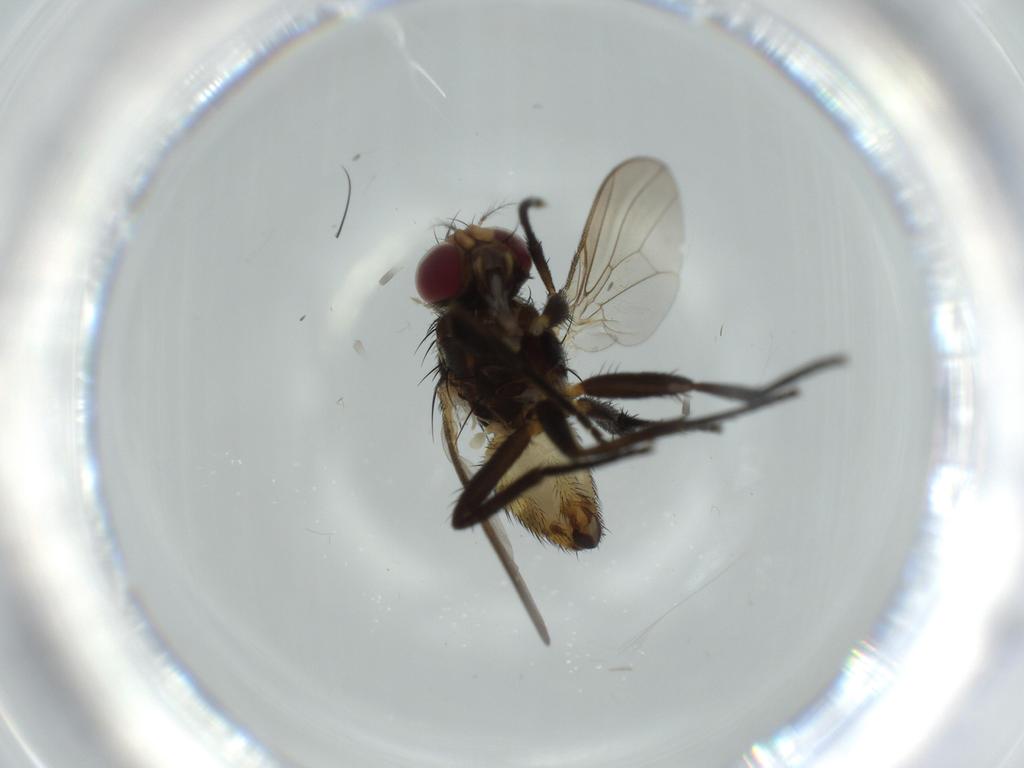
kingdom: Animalia
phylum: Arthropoda
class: Insecta
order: Diptera
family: Anthomyiidae
